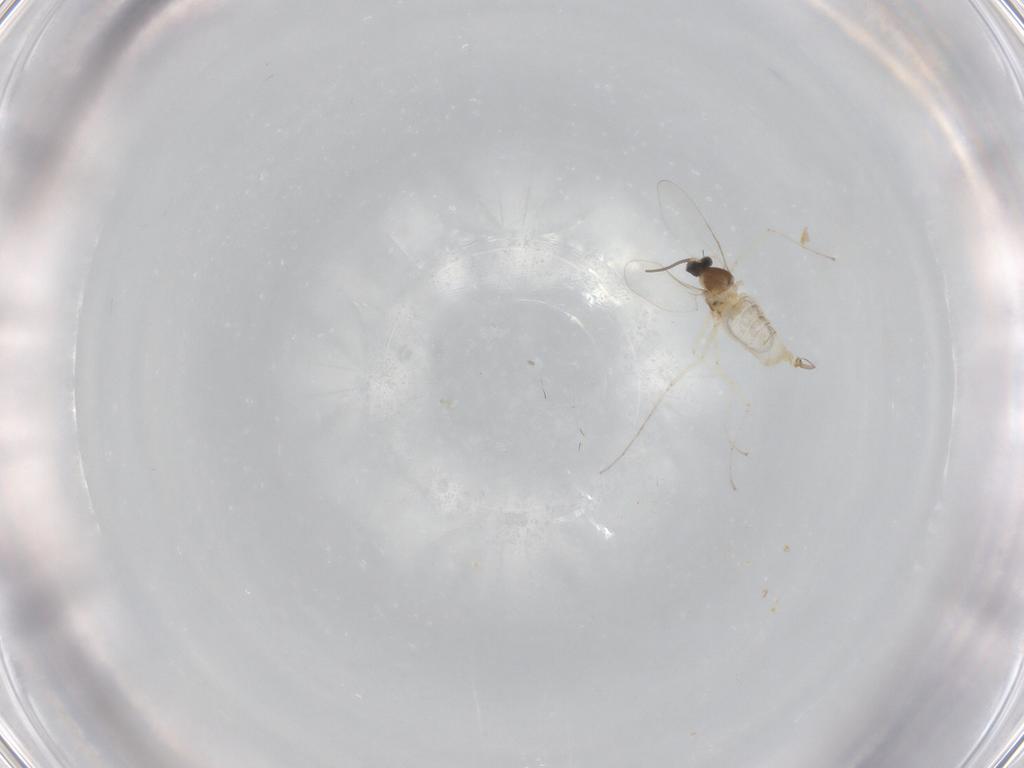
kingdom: Animalia
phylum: Arthropoda
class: Insecta
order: Diptera
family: Cecidomyiidae
